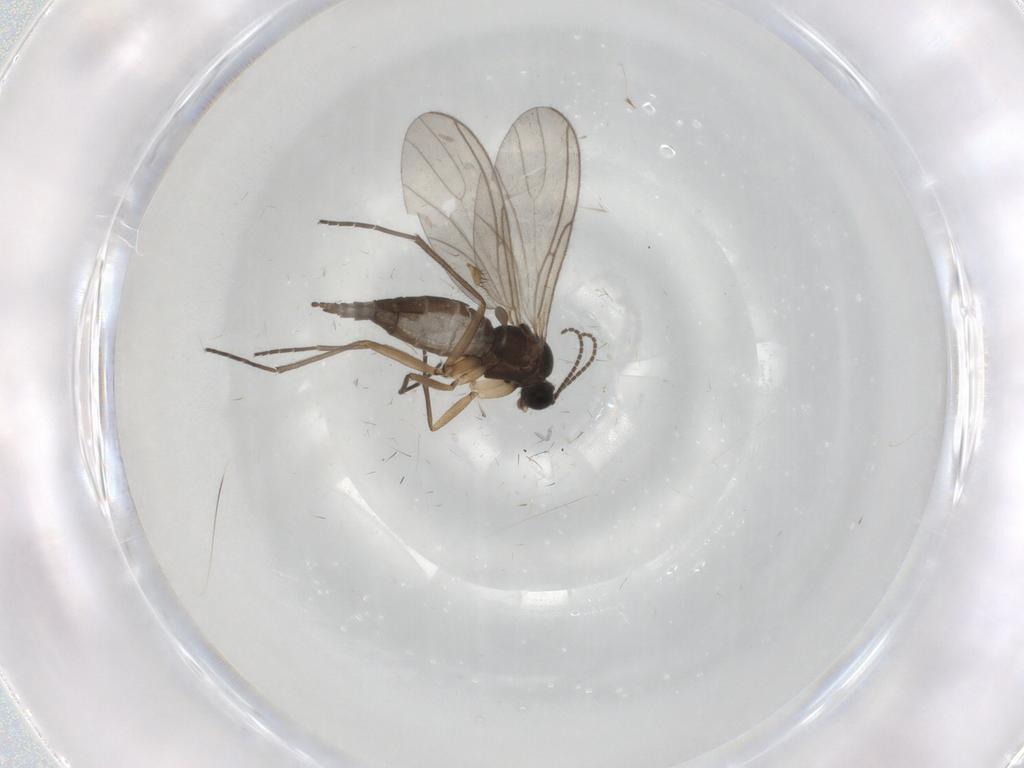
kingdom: Animalia
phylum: Arthropoda
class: Insecta
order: Diptera
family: Sciaridae
